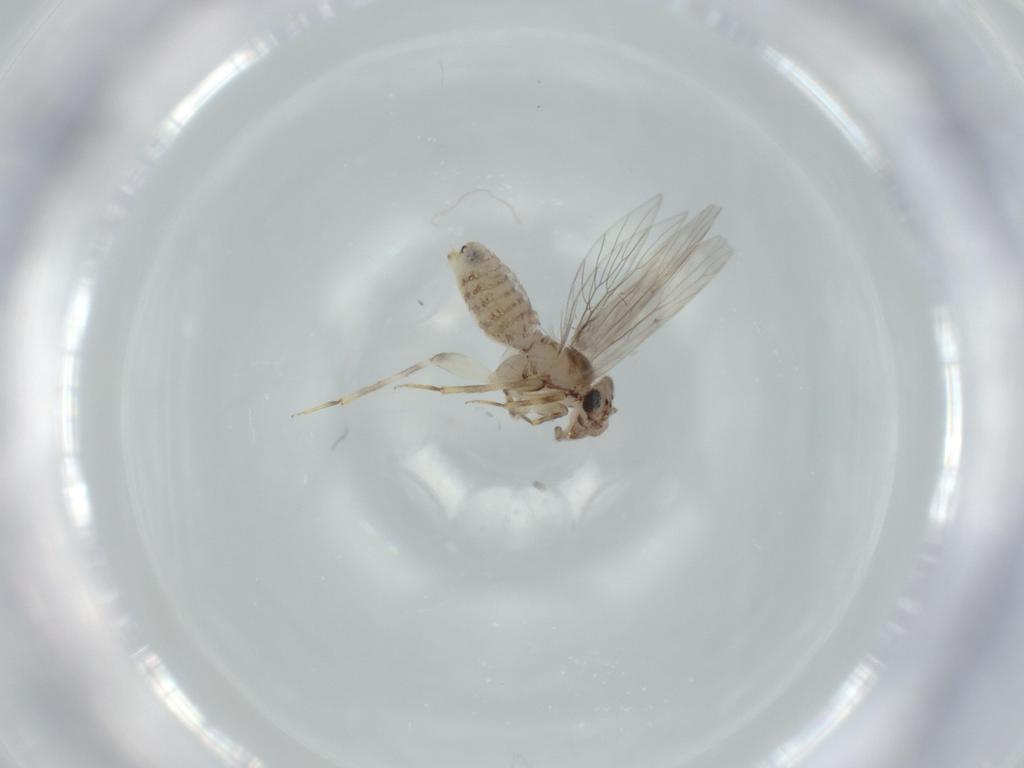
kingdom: Animalia
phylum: Arthropoda
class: Insecta
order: Psocodea
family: Lepidopsocidae
